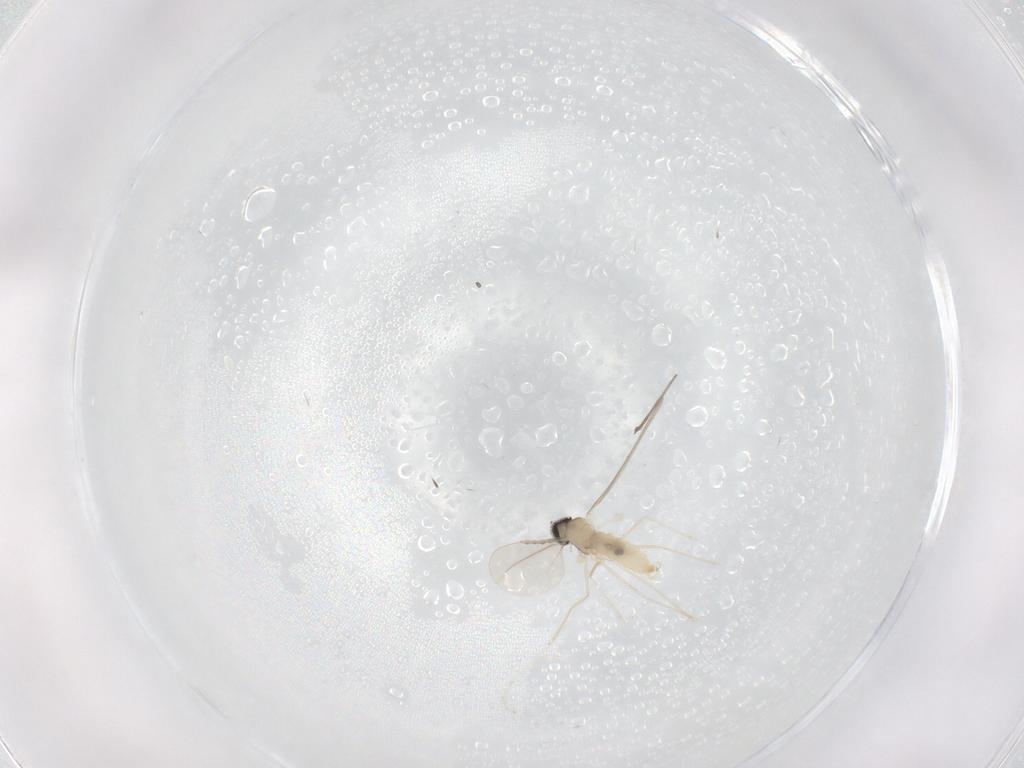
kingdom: Animalia
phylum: Arthropoda
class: Insecta
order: Diptera
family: Cecidomyiidae
